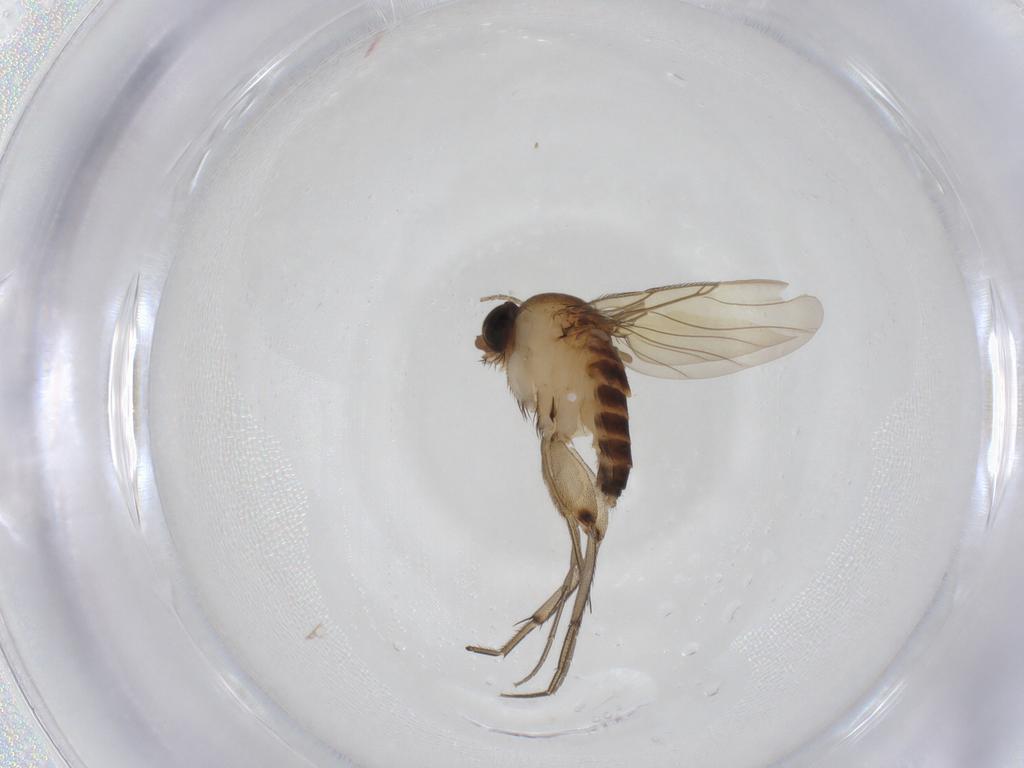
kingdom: Animalia
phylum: Arthropoda
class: Insecta
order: Diptera
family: Phoridae
